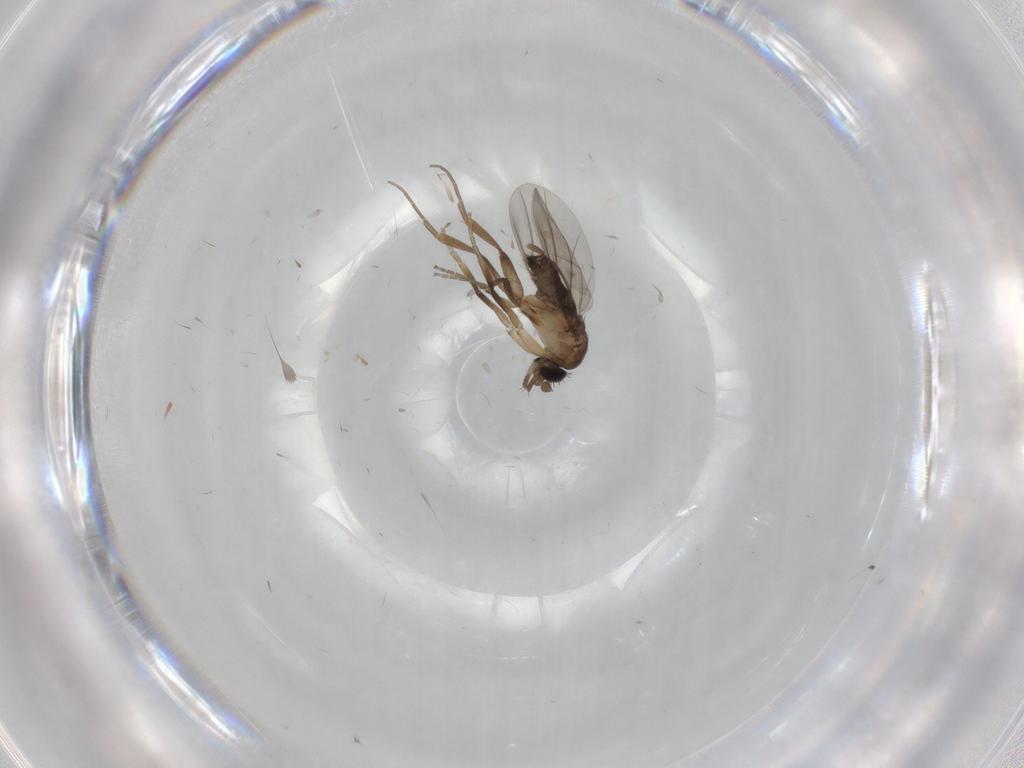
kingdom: Animalia
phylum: Arthropoda
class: Insecta
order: Diptera
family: Phoridae
